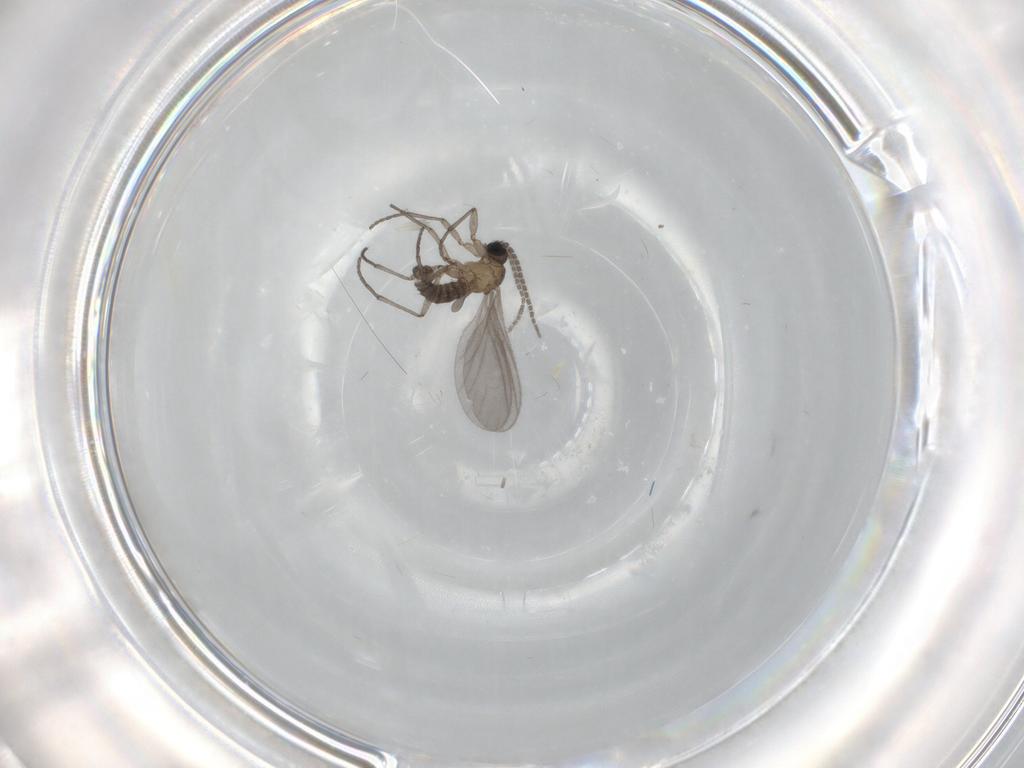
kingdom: Animalia
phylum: Arthropoda
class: Insecta
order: Diptera
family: Sciaridae
